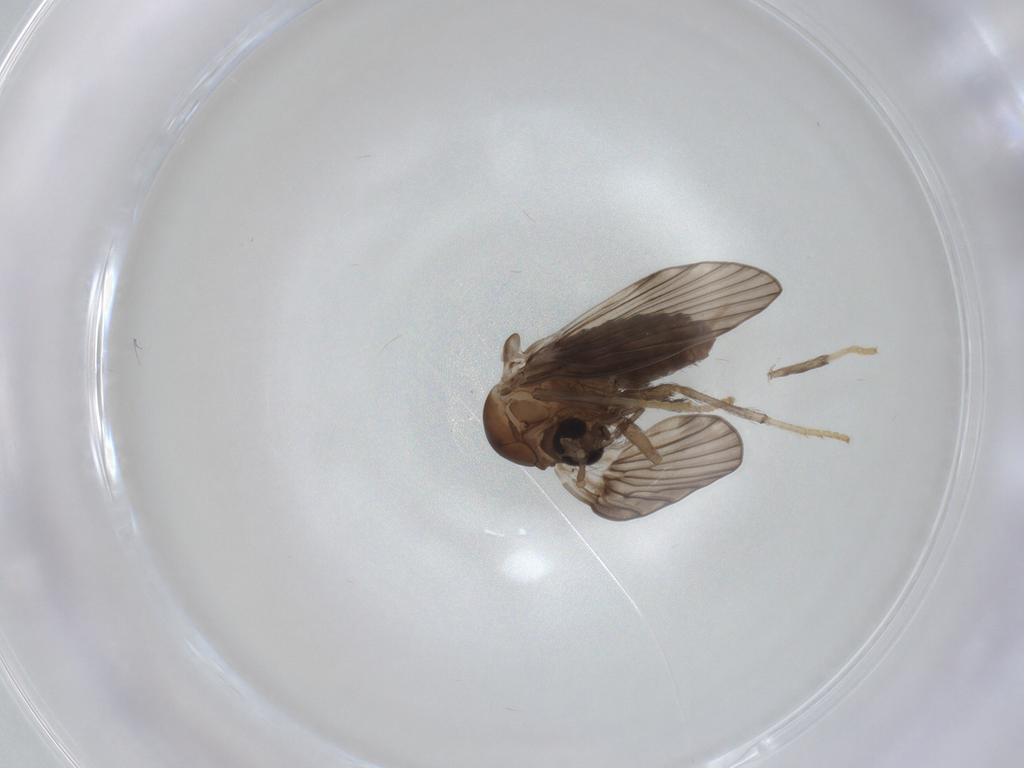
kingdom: Animalia
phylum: Arthropoda
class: Insecta
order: Diptera
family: Psychodidae
